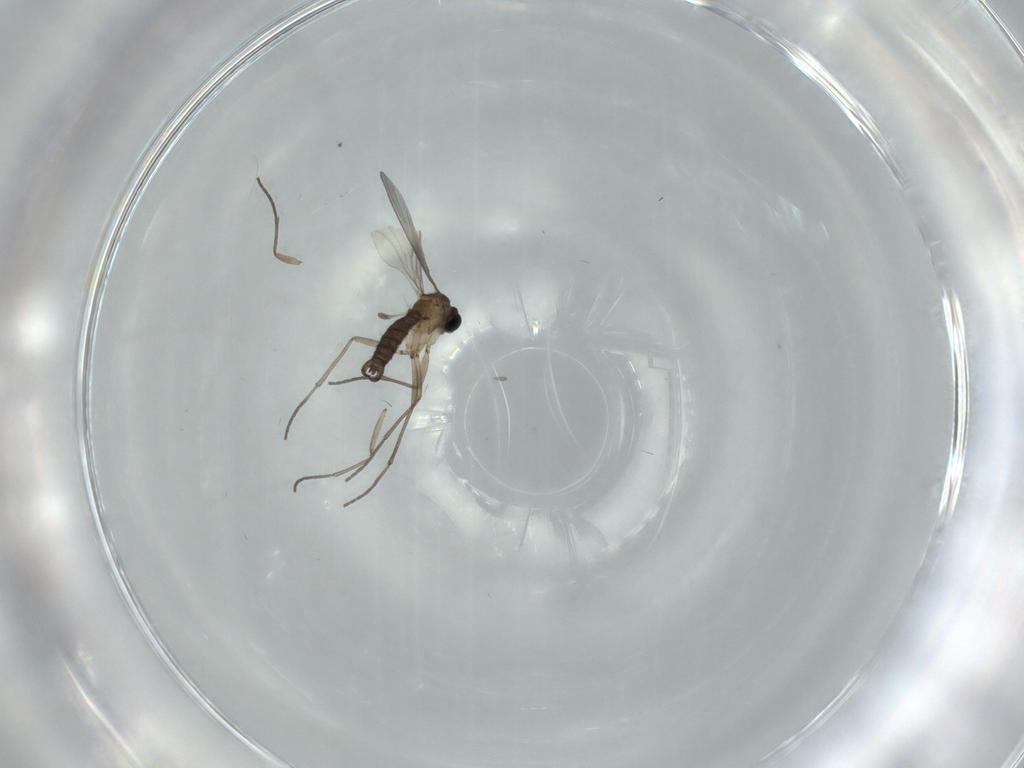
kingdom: Animalia
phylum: Arthropoda
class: Insecta
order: Diptera
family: Sciaridae
